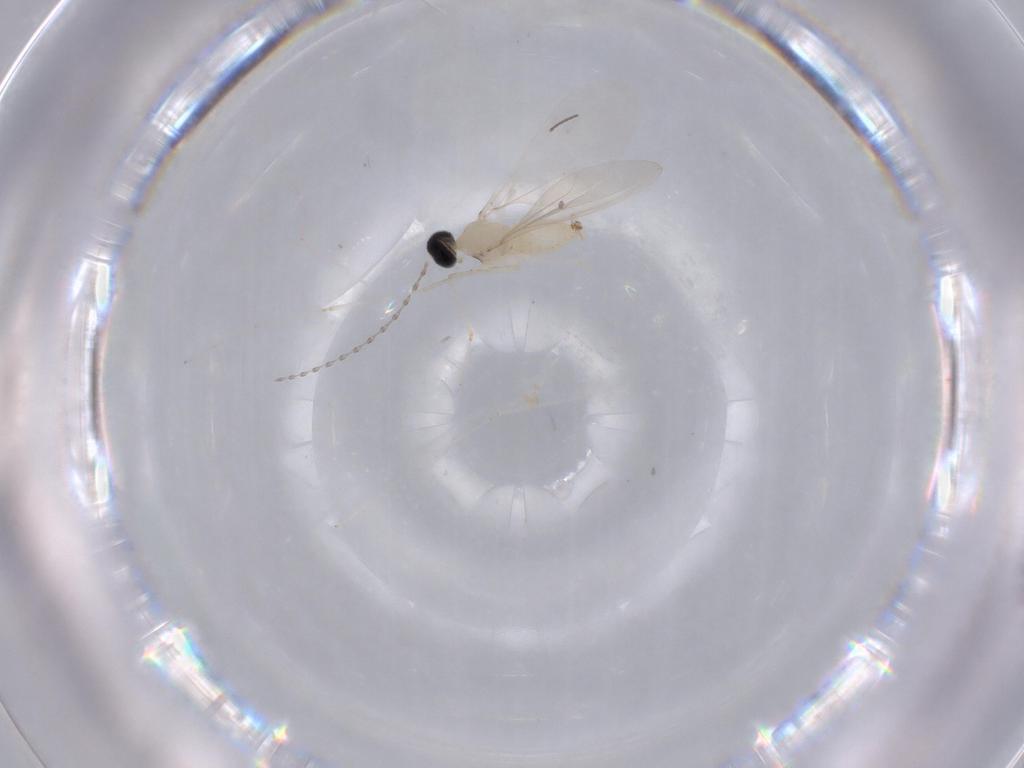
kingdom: Animalia
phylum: Arthropoda
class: Insecta
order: Diptera
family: Cecidomyiidae
